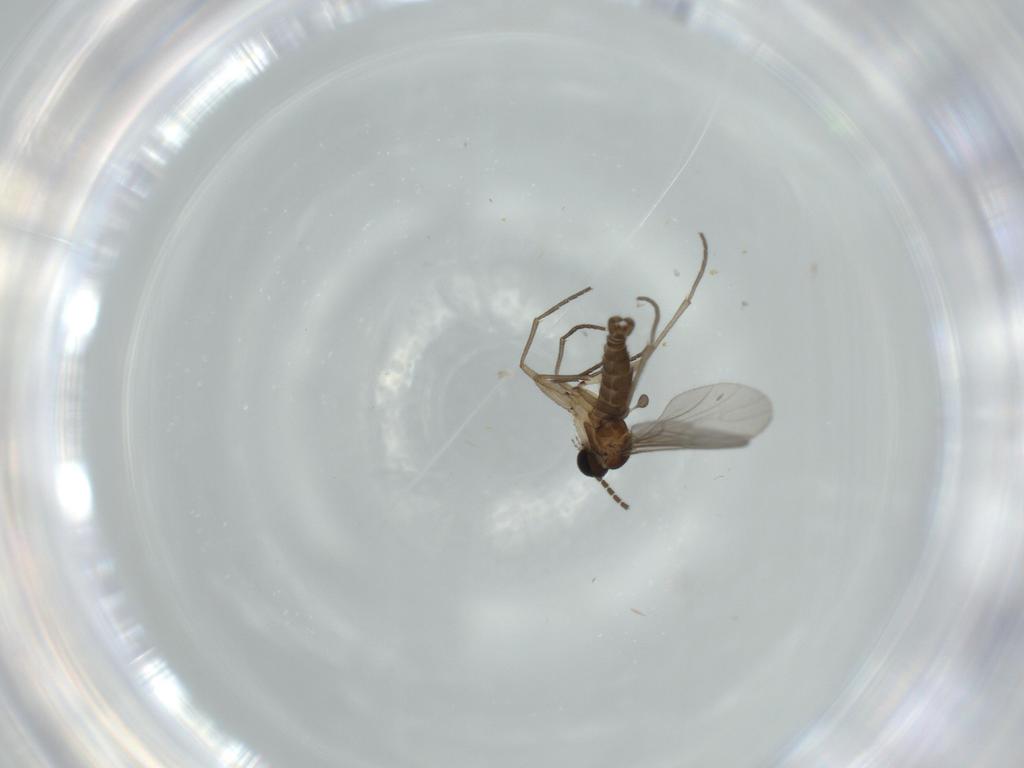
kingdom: Animalia
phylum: Arthropoda
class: Insecta
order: Diptera
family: Sciaridae
